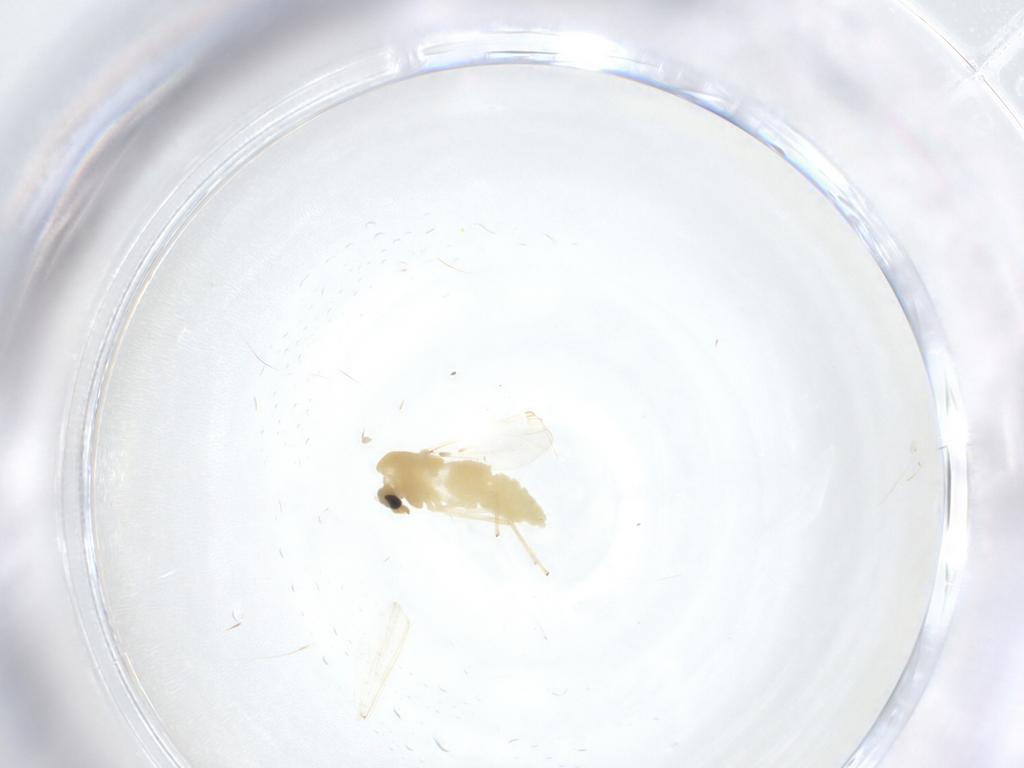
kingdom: Animalia
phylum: Arthropoda
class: Insecta
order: Diptera
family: Chironomidae
